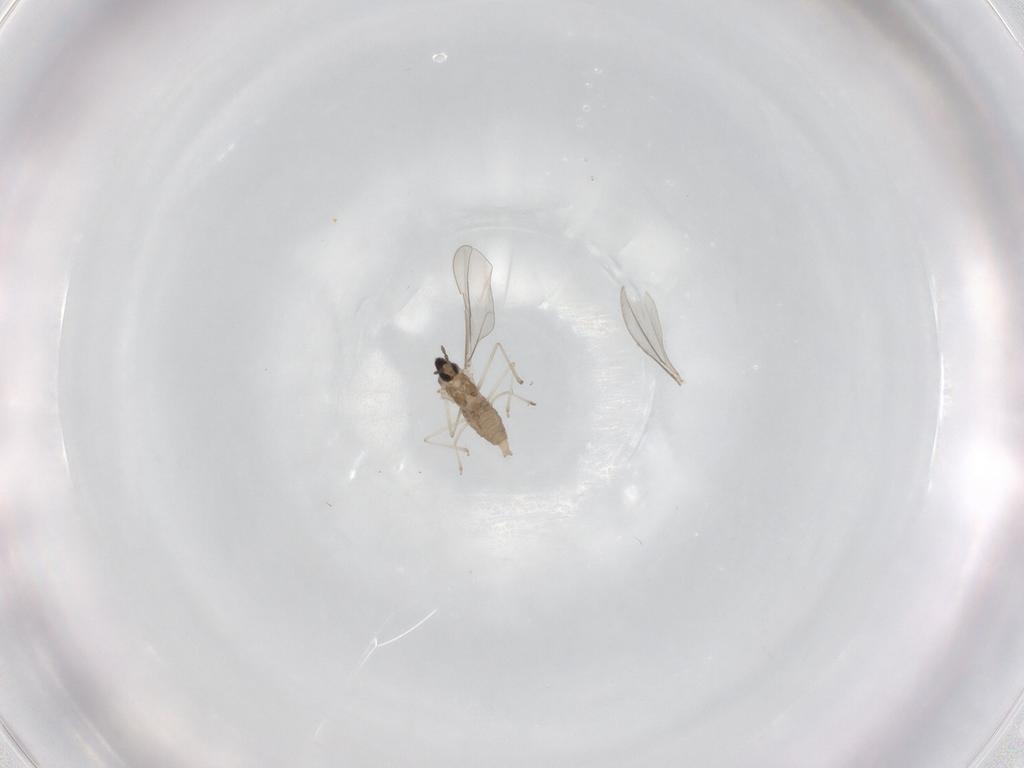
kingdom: Animalia
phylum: Arthropoda
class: Insecta
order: Diptera
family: Cecidomyiidae
